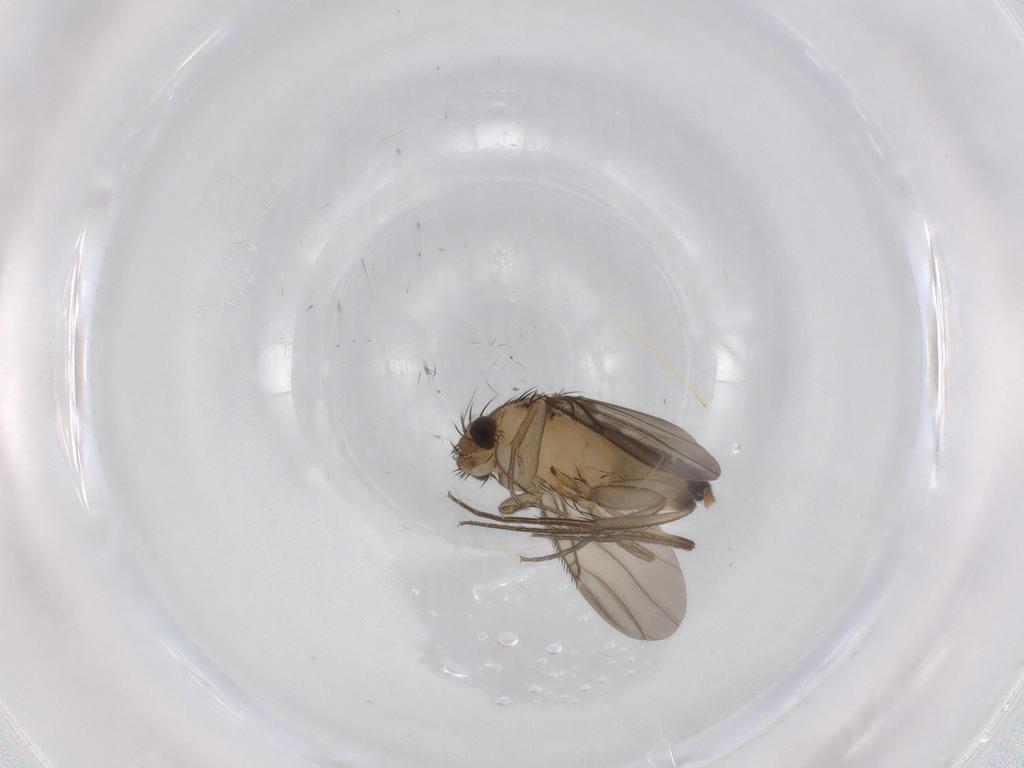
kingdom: Animalia
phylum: Arthropoda
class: Insecta
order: Diptera
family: Phoridae
